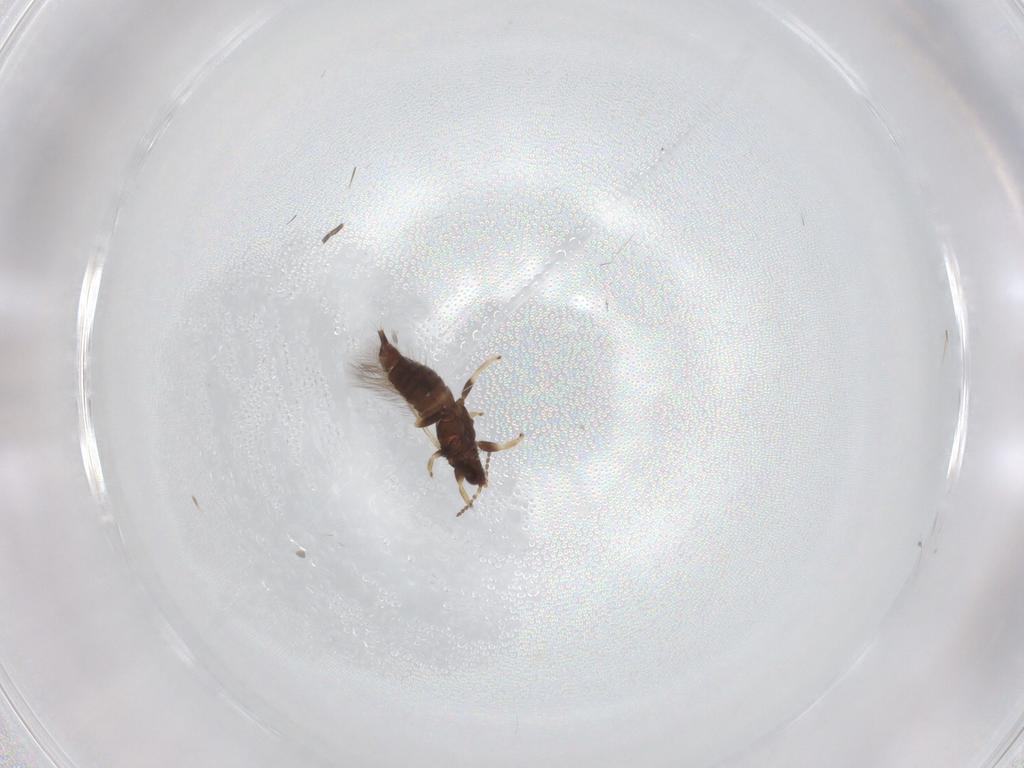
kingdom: Animalia
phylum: Arthropoda
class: Insecta
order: Thysanoptera
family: Phlaeothripidae
